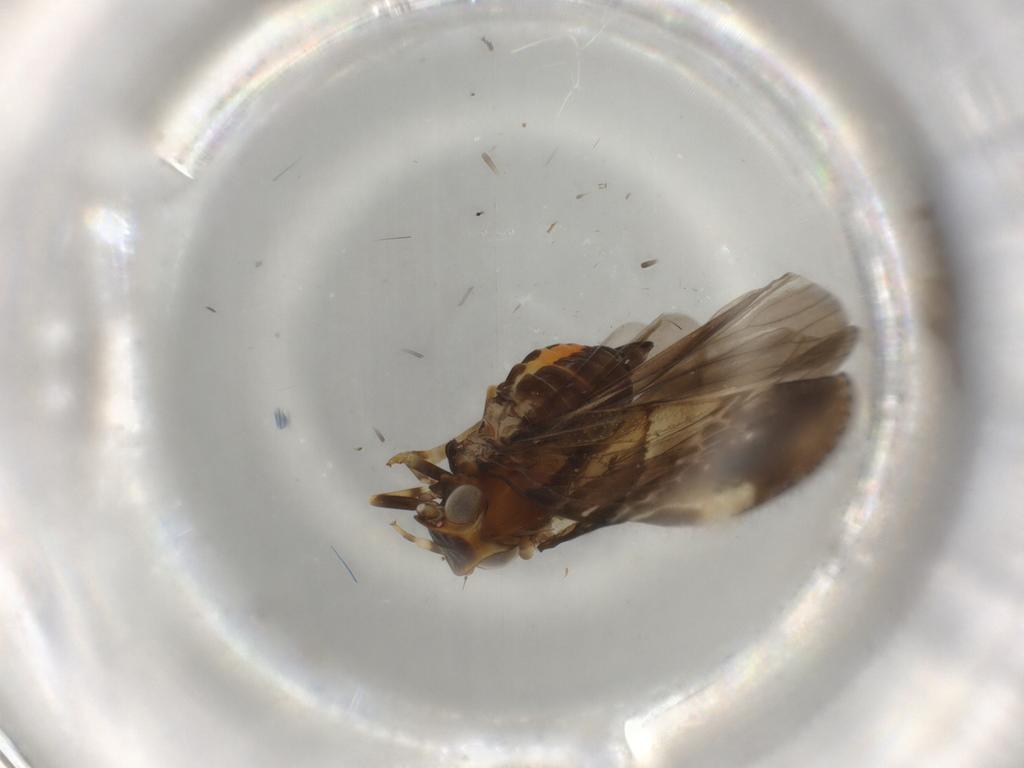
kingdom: Animalia
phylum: Arthropoda
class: Insecta
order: Hemiptera
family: Cixiidae
